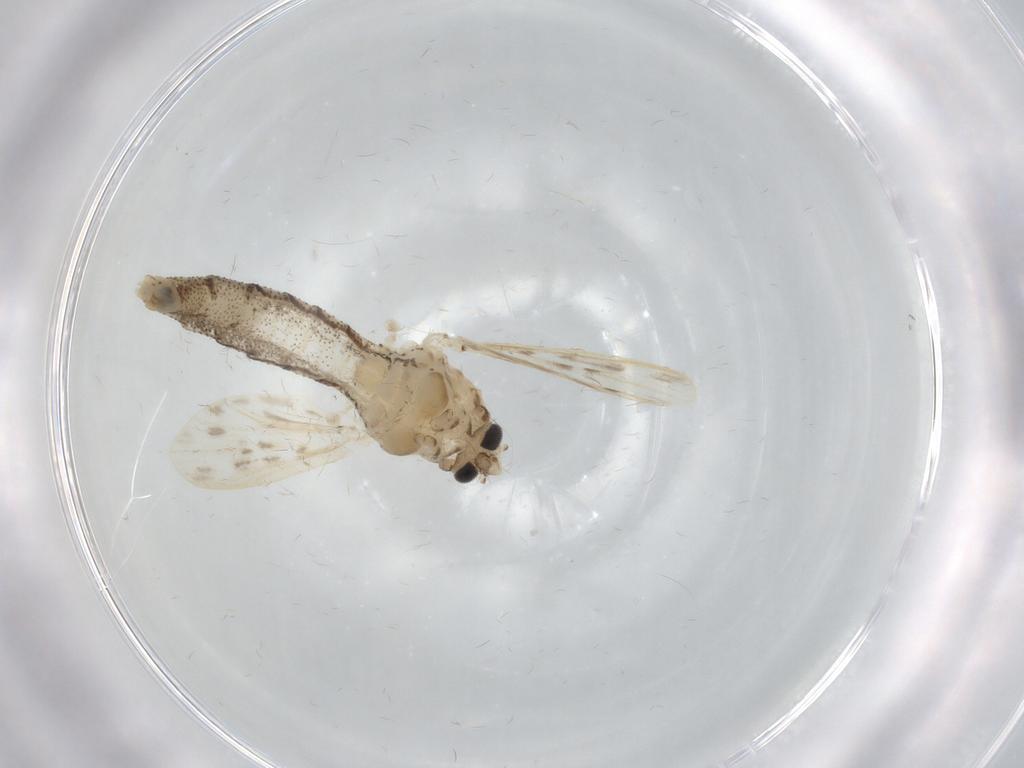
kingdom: Animalia
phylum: Arthropoda
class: Insecta
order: Diptera
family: Chaoboridae
